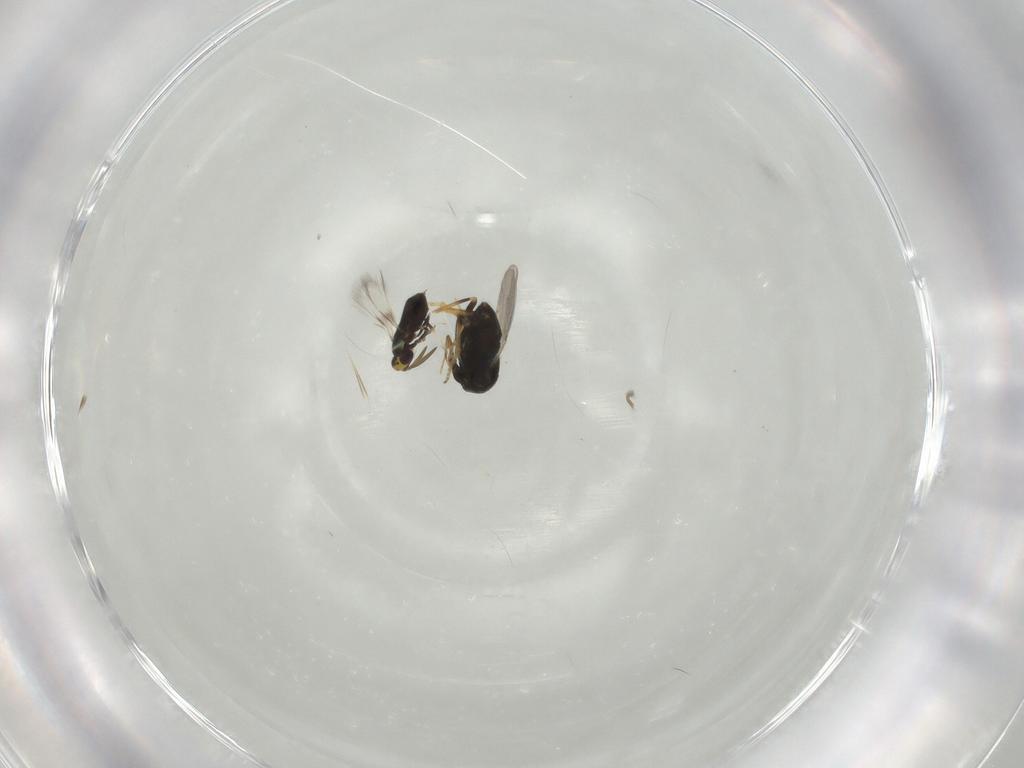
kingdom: Animalia
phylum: Arthropoda
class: Insecta
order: Hymenoptera
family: Encyrtidae
